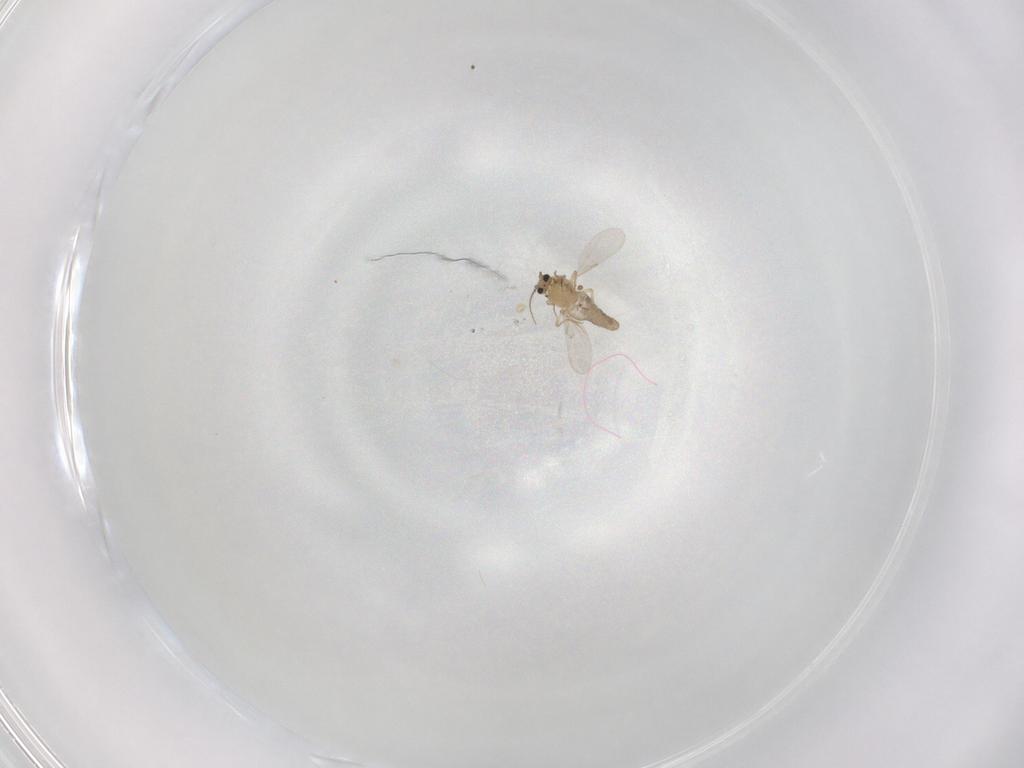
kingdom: Animalia
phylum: Arthropoda
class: Insecta
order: Diptera
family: Ceratopogonidae
